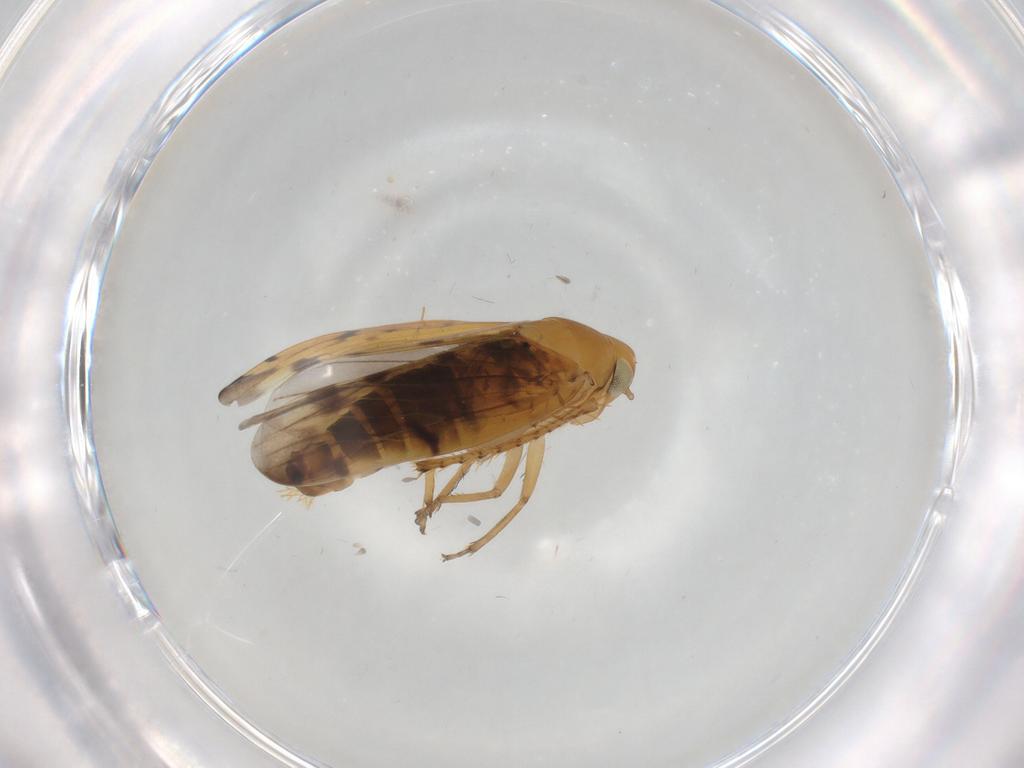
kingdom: Animalia
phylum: Arthropoda
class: Insecta
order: Hemiptera
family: Cicadellidae
